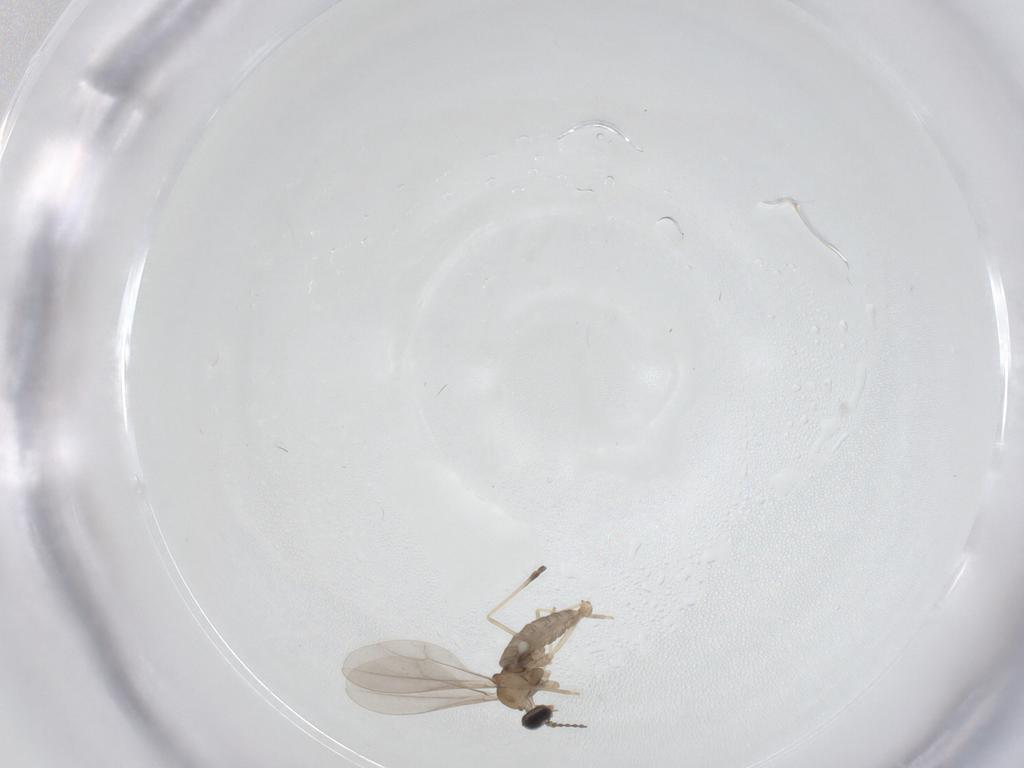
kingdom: Animalia
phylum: Arthropoda
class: Insecta
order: Diptera
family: Cecidomyiidae
